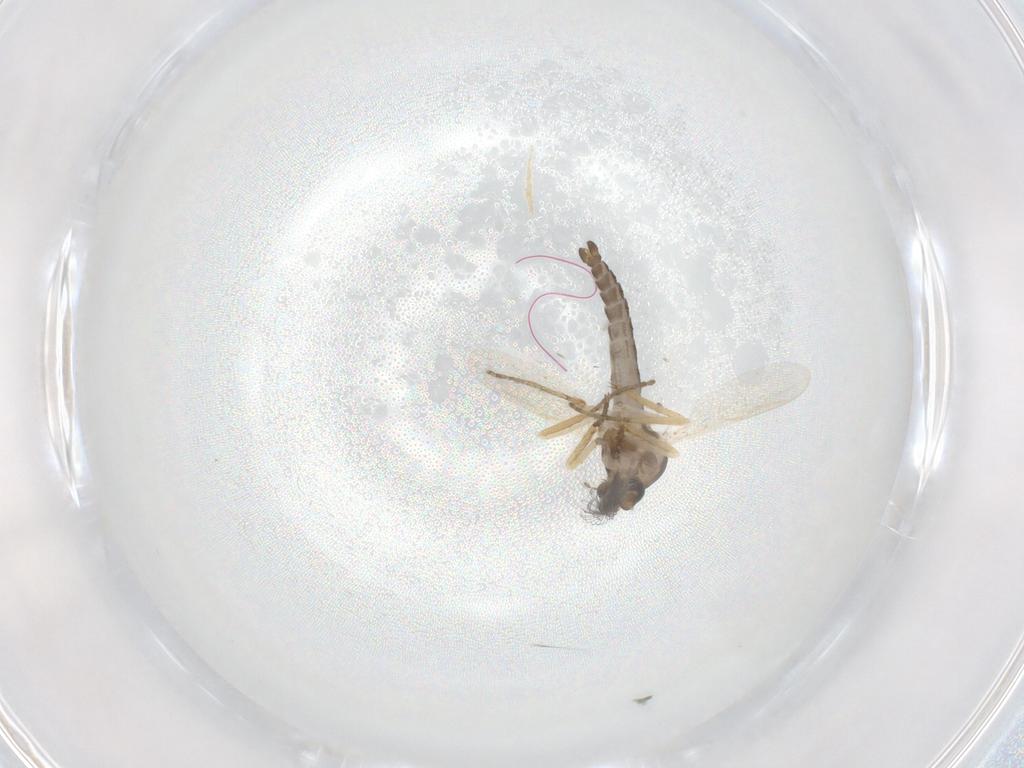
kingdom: Animalia
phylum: Arthropoda
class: Insecta
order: Diptera
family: Ceratopogonidae
